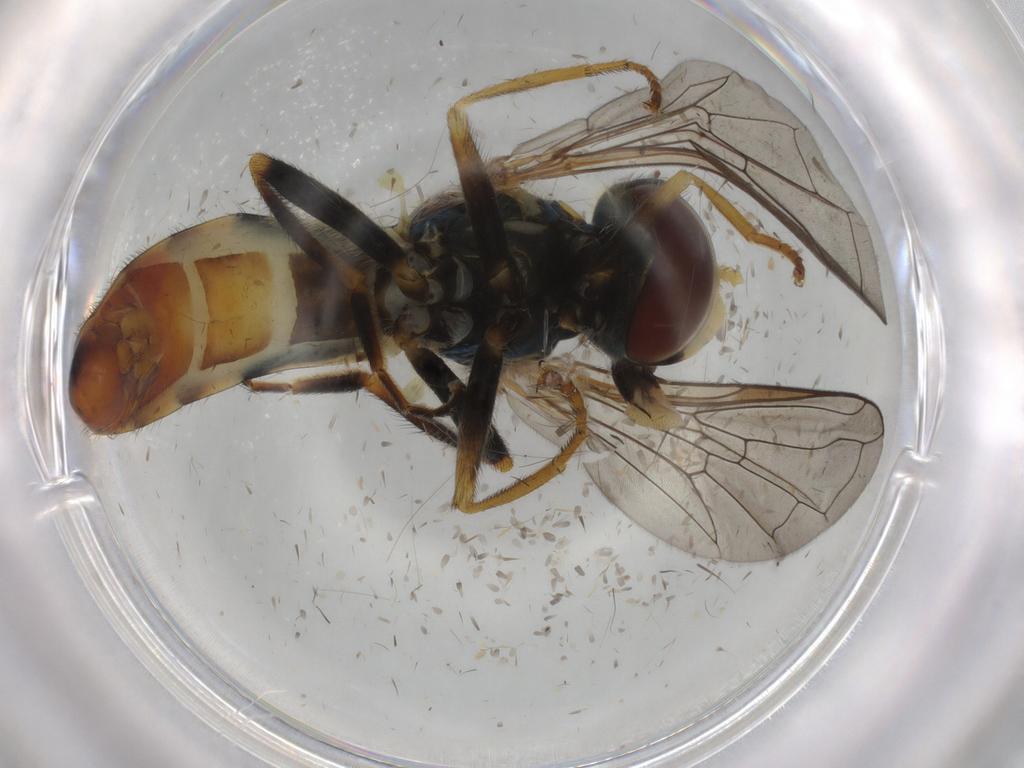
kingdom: Animalia
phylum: Arthropoda
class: Insecta
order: Diptera
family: Syrphidae
